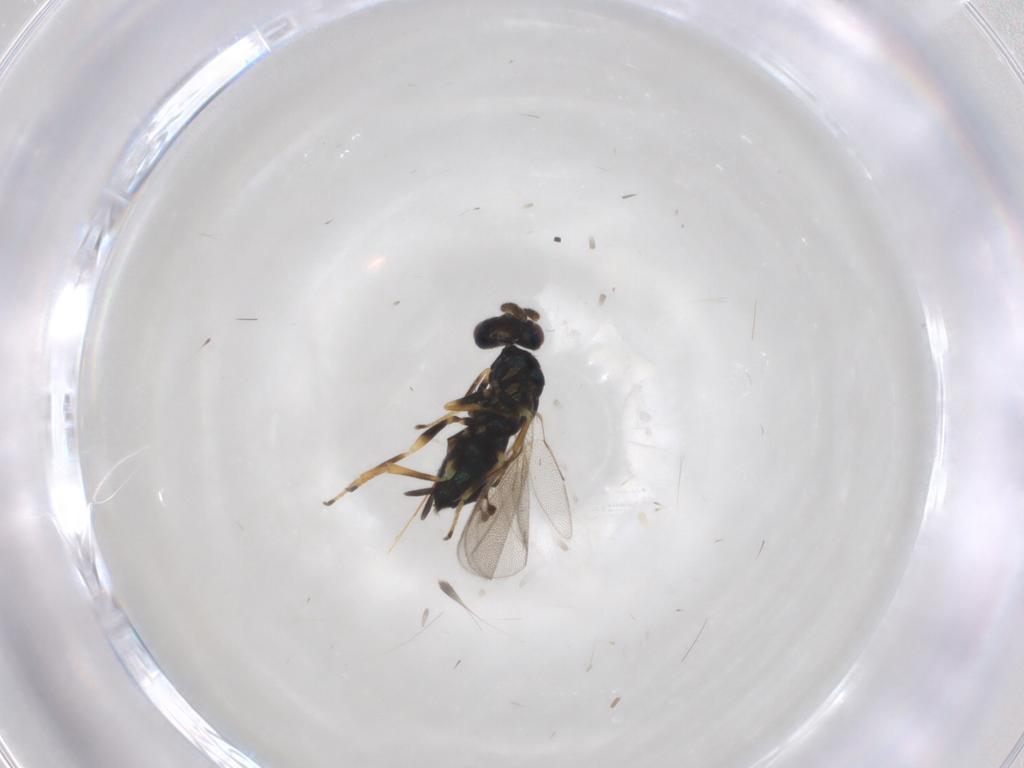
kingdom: Animalia
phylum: Arthropoda
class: Insecta
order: Hymenoptera
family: Pirenidae
